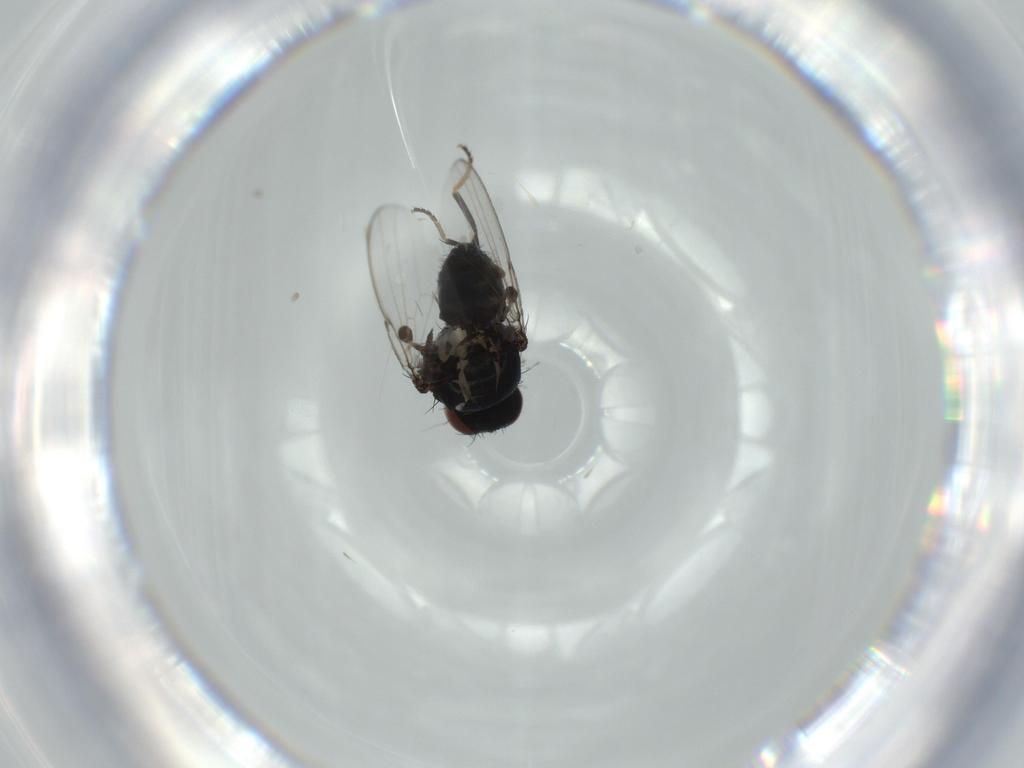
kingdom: Animalia
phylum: Arthropoda
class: Insecta
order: Diptera
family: Milichiidae
